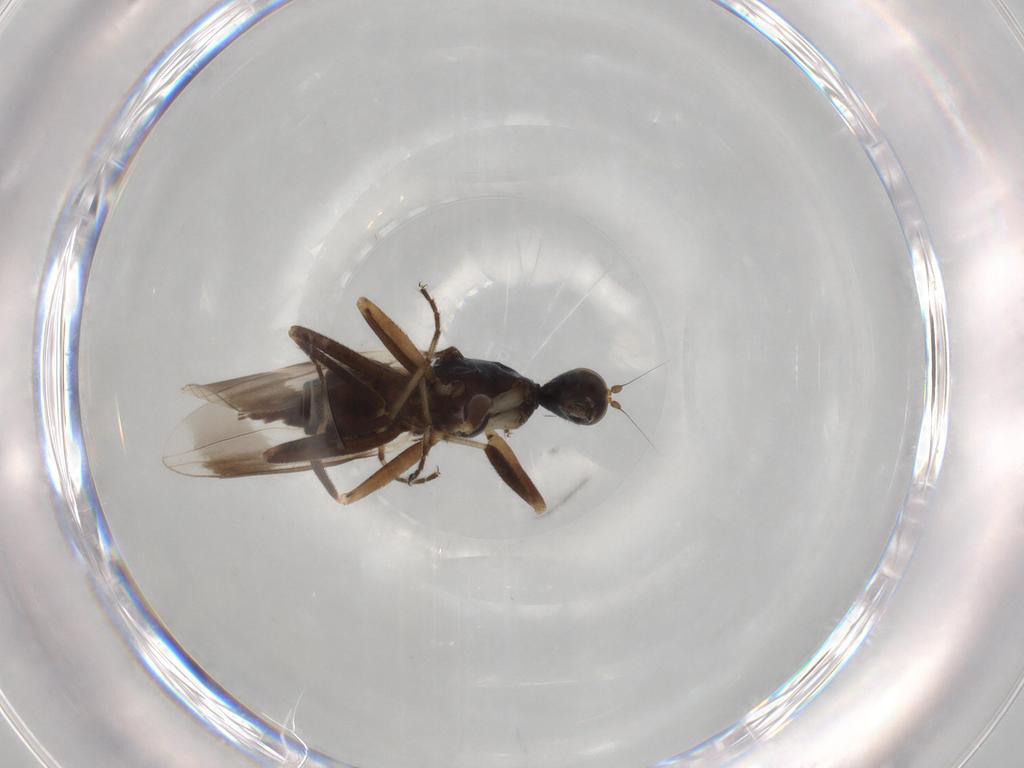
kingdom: Animalia
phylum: Arthropoda
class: Insecta
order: Diptera
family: Hybotidae
